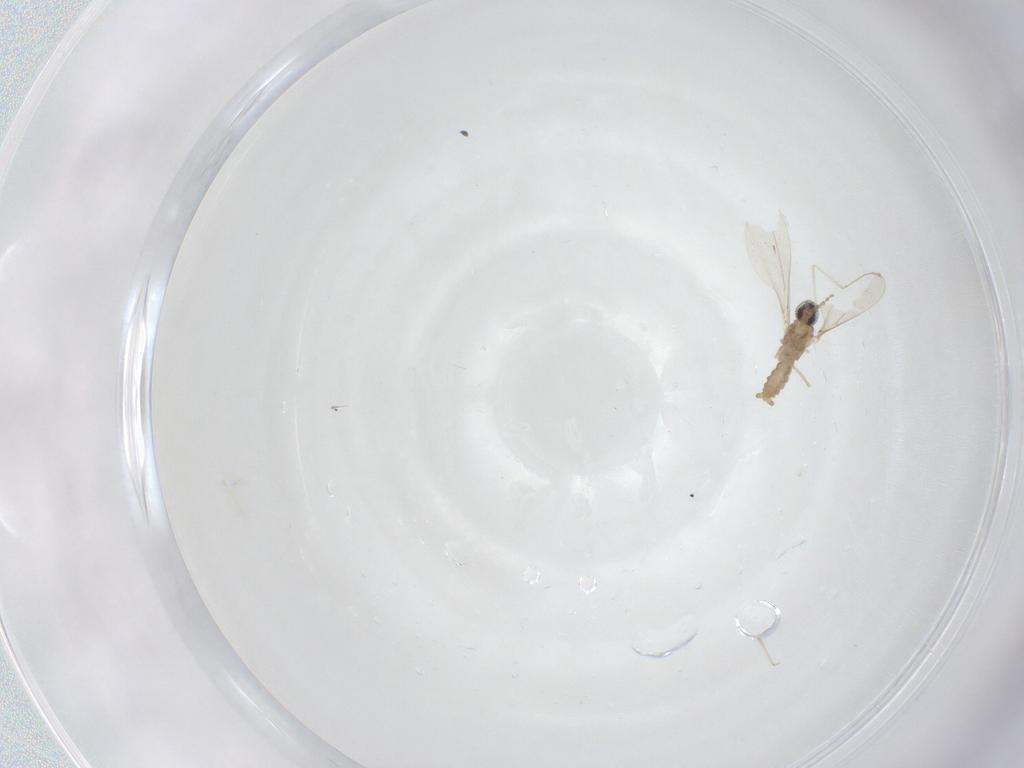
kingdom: Animalia
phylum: Arthropoda
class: Insecta
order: Diptera
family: Cecidomyiidae
